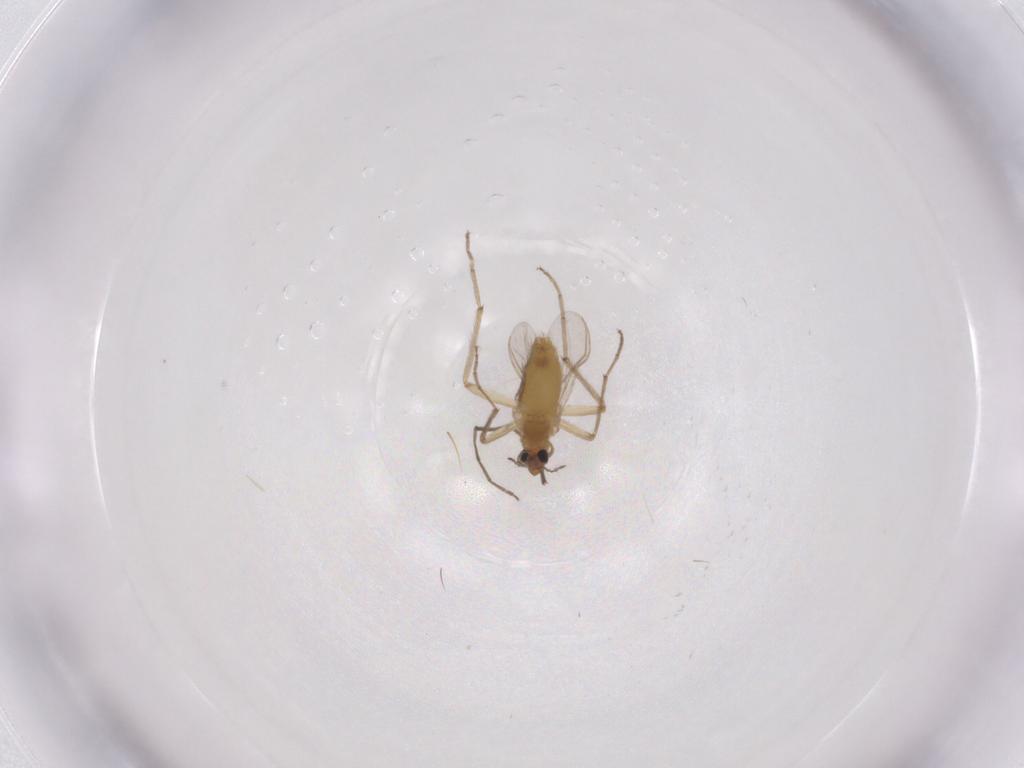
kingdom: Animalia
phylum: Arthropoda
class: Insecta
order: Diptera
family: Chironomidae
